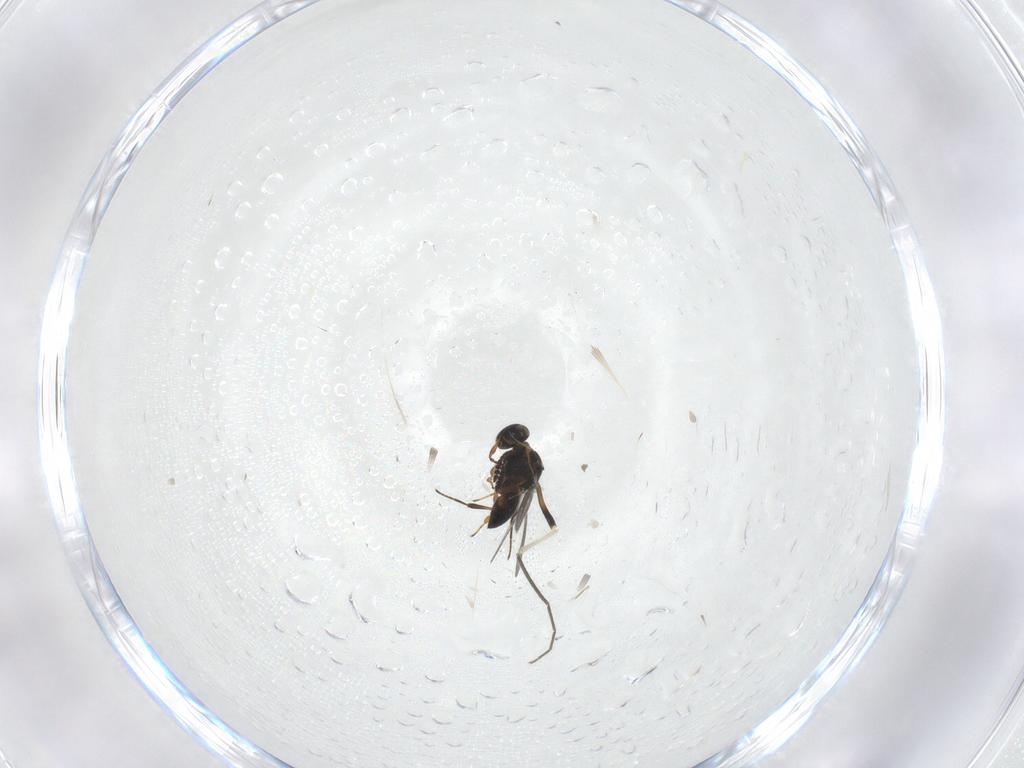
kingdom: Animalia
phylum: Arthropoda
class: Insecta
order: Hymenoptera
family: Platygastridae
